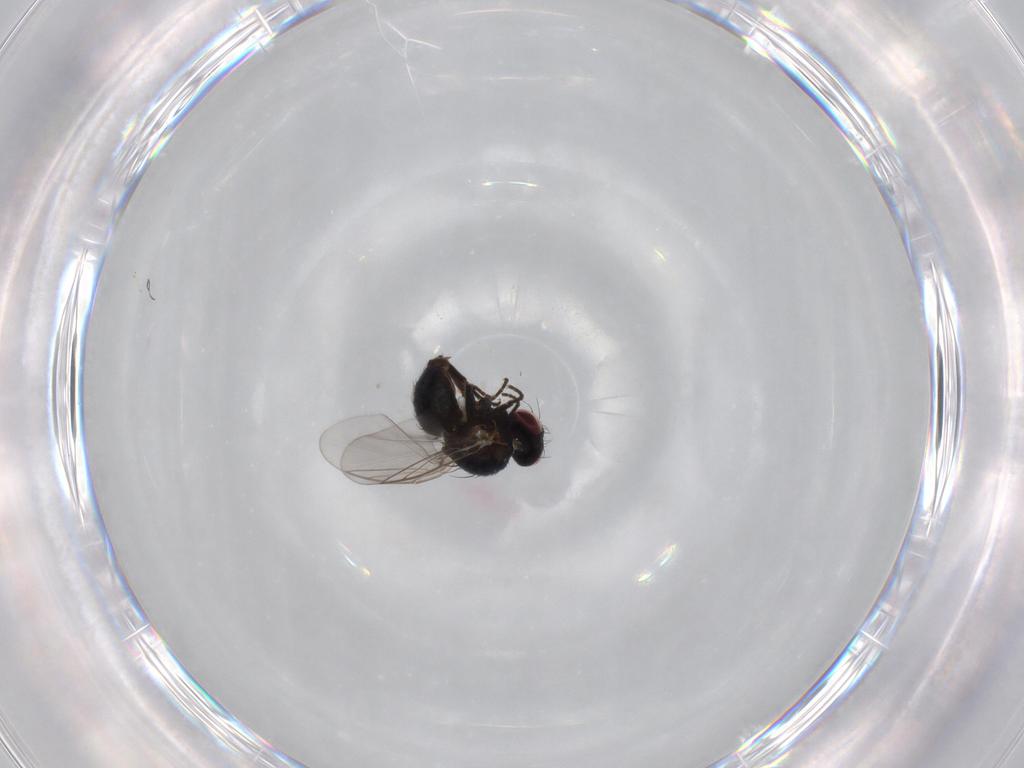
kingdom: Animalia
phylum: Arthropoda
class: Insecta
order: Diptera
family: Agromyzidae
